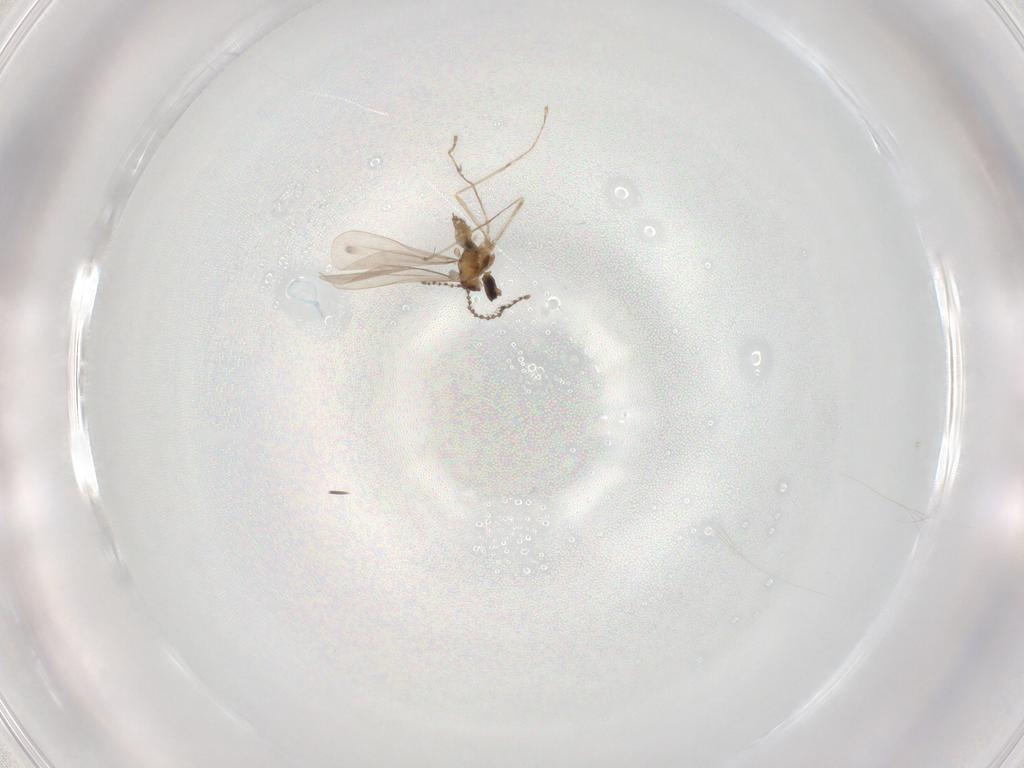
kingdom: Animalia
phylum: Arthropoda
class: Insecta
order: Diptera
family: Cecidomyiidae
